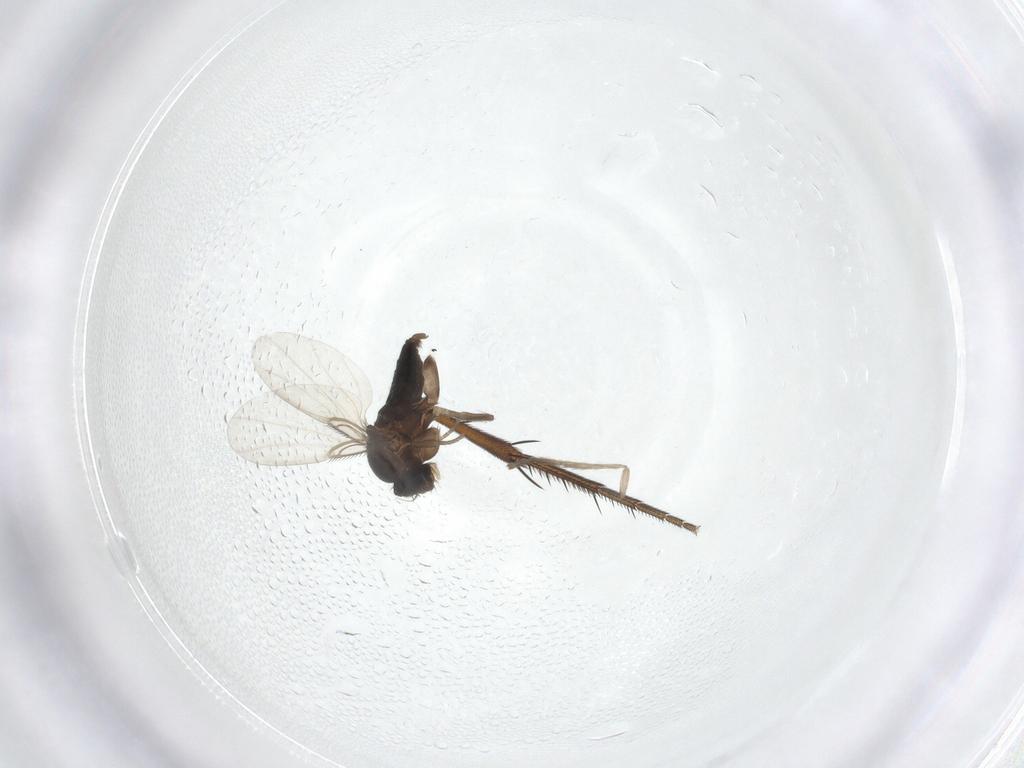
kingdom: Animalia
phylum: Arthropoda
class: Insecta
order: Diptera
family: Phoridae
